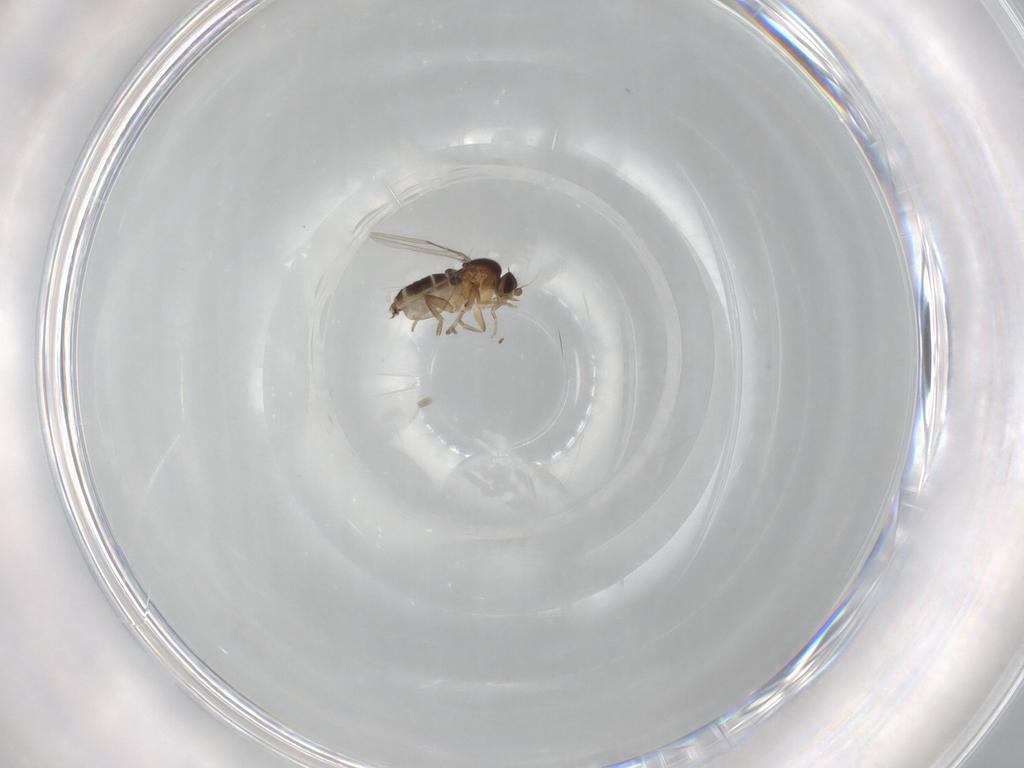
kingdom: Animalia
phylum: Arthropoda
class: Insecta
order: Diptera
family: Phoridae
